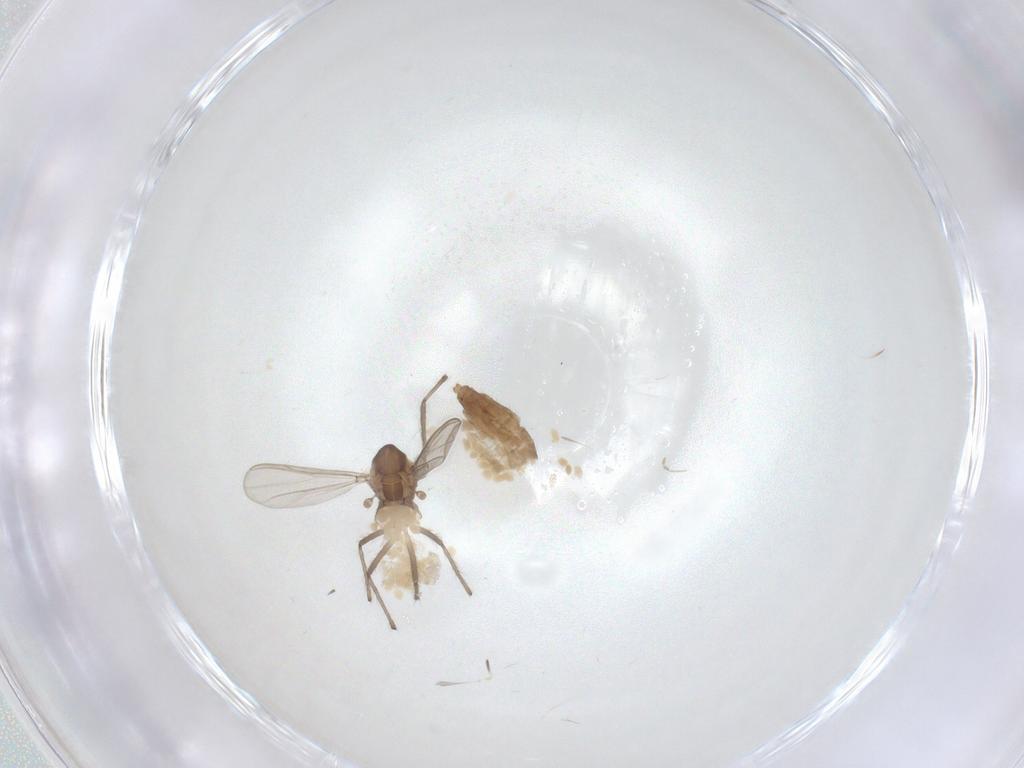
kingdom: Animalia
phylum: Arthropoda
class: Insecta
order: Diptera
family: Chironomidae
